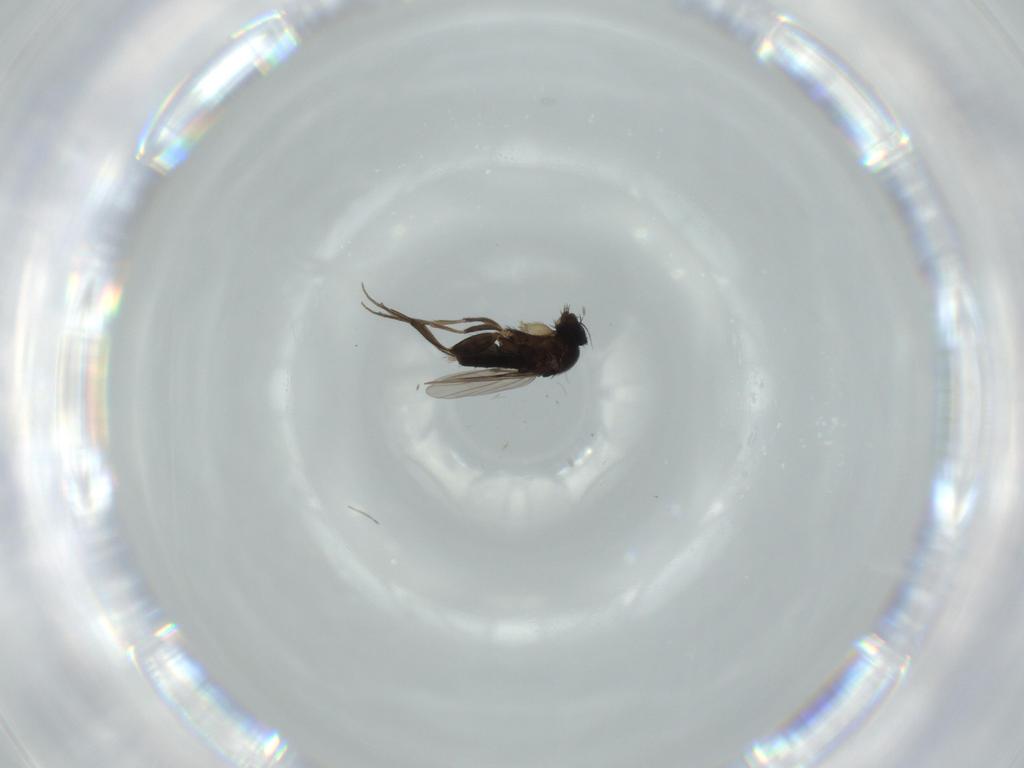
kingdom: Animalia
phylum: Arthropoda
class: Insecta
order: Diptera
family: Phoridae
